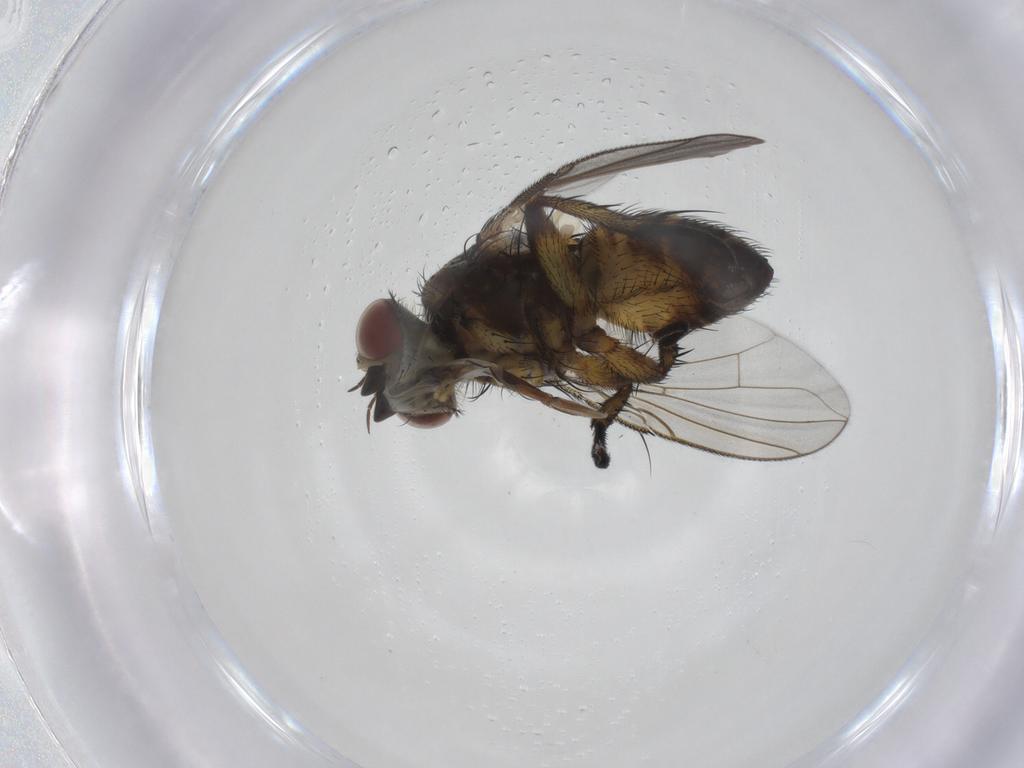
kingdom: Animalia
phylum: Arthropoda
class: Insecta
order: Diptera
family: Tachinidae
